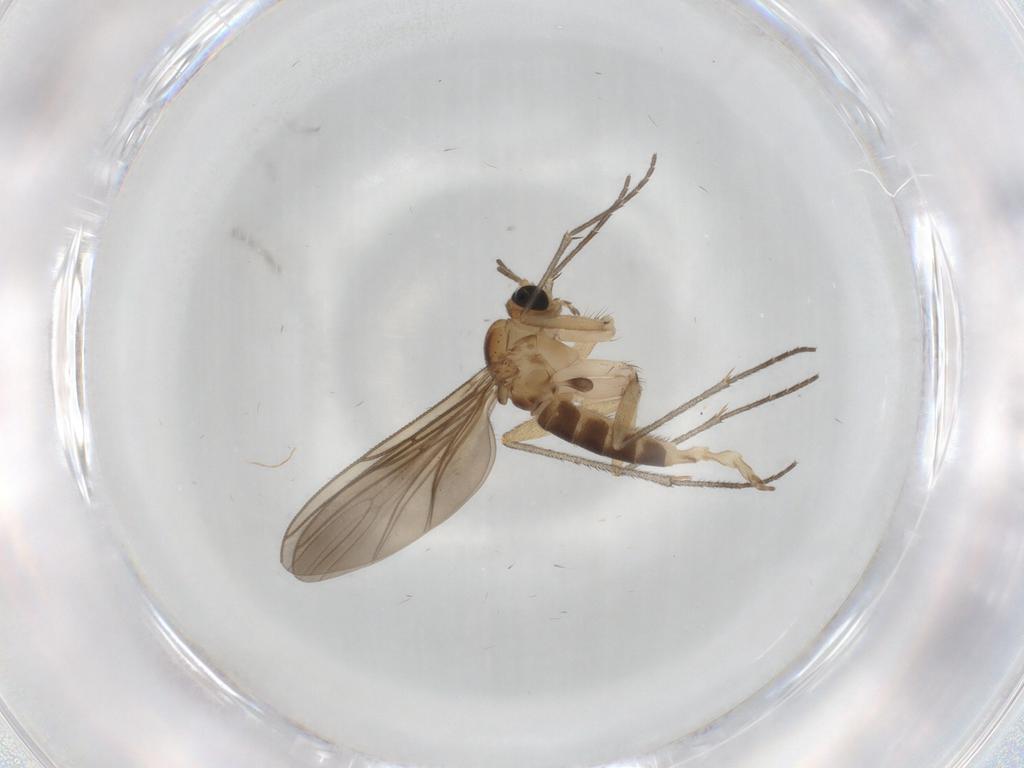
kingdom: Animalia
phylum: Arthropoda
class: Insecta
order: Diptera
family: Sciaridae
